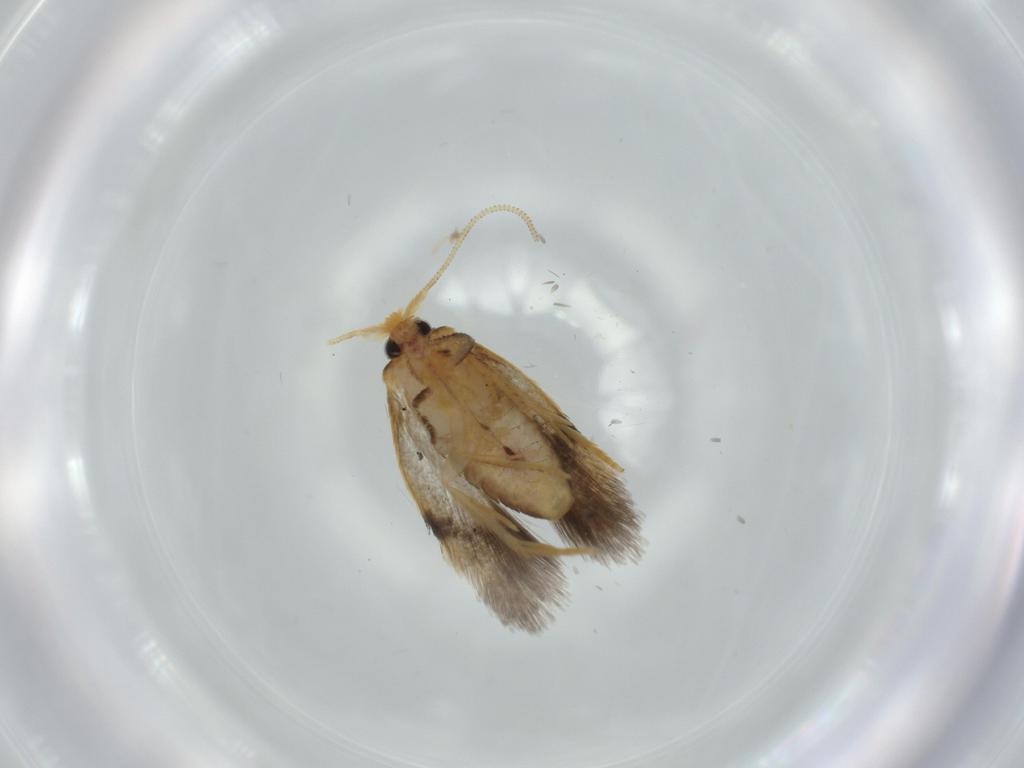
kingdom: Animalia
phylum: Arthropoda
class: Insecta
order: Lepidoptera
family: Nepticulidae
